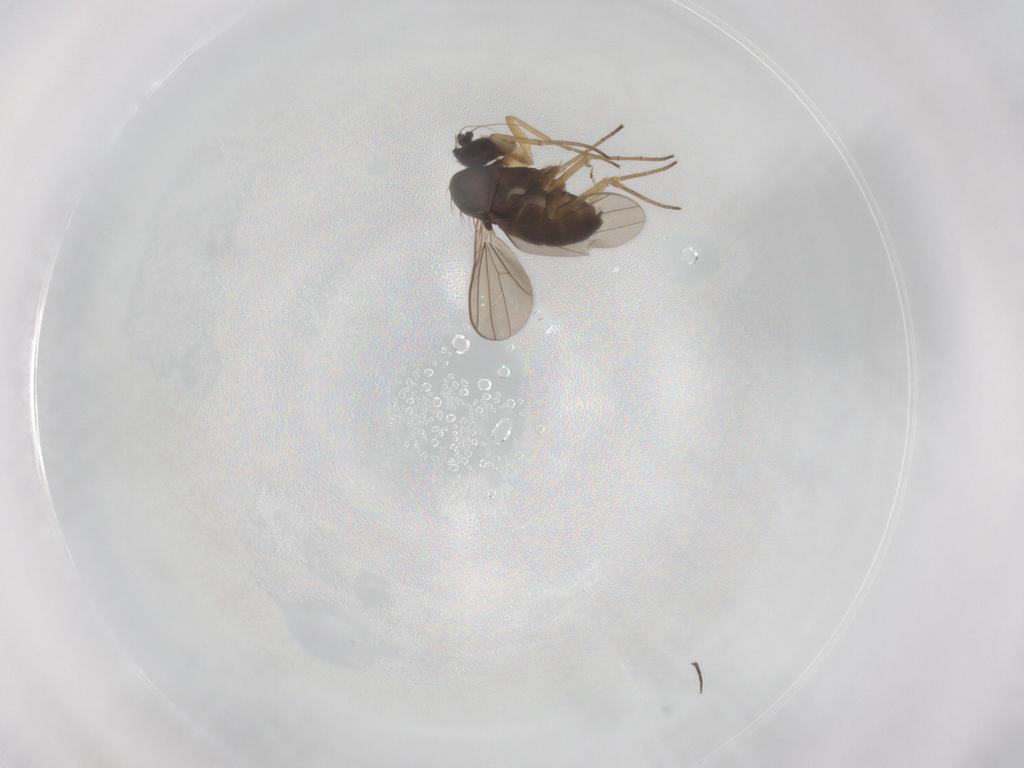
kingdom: Animalia
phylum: Arthropoda
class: Insecta
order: Diptera
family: Dolichopodidae
